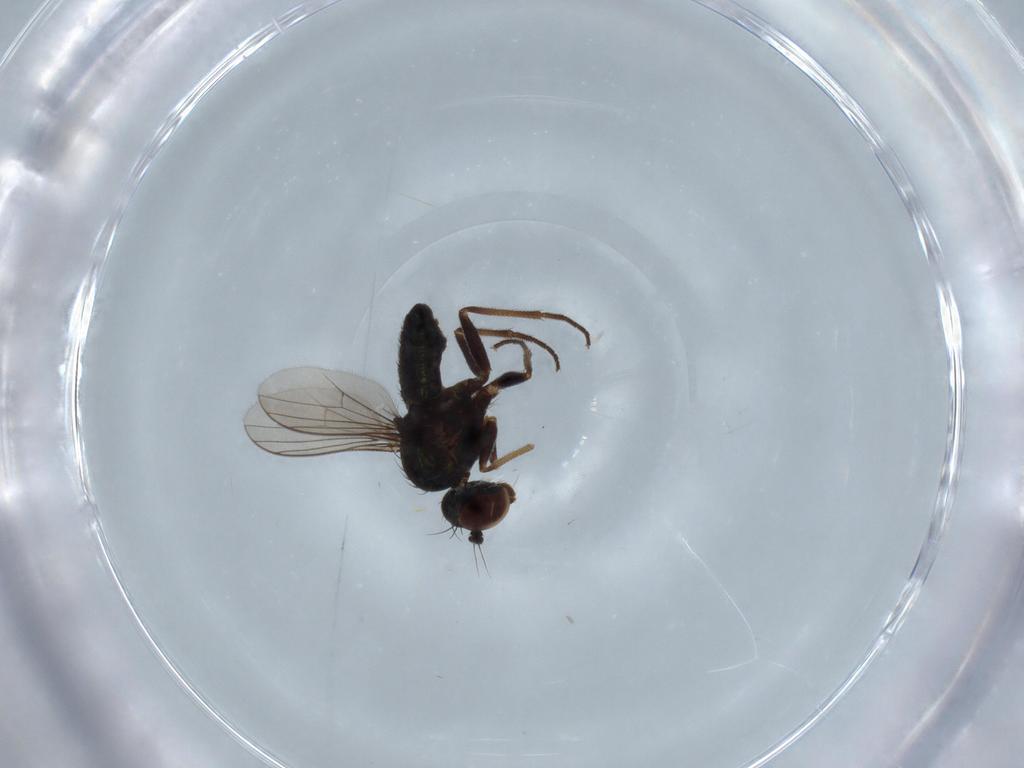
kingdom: Animalia
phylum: Arthropoda
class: Insecta
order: Diptera
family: Dolichopodidae
